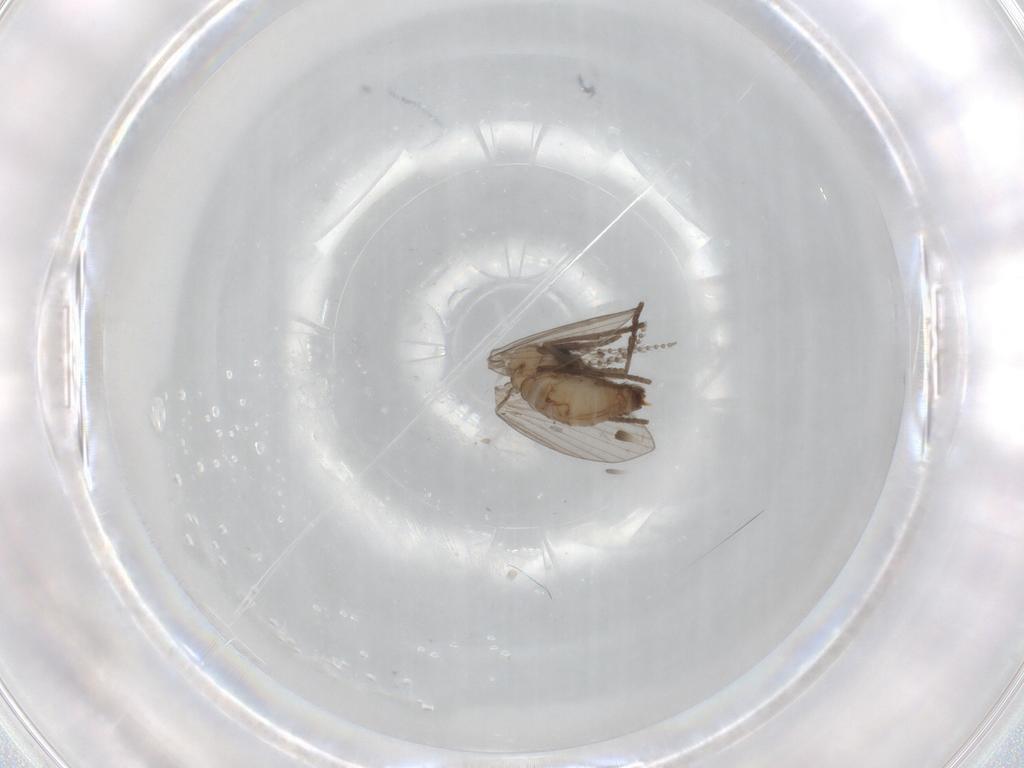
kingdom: Animalia
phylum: Arthropoda
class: Insecta
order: Diptera
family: Psychodidae
